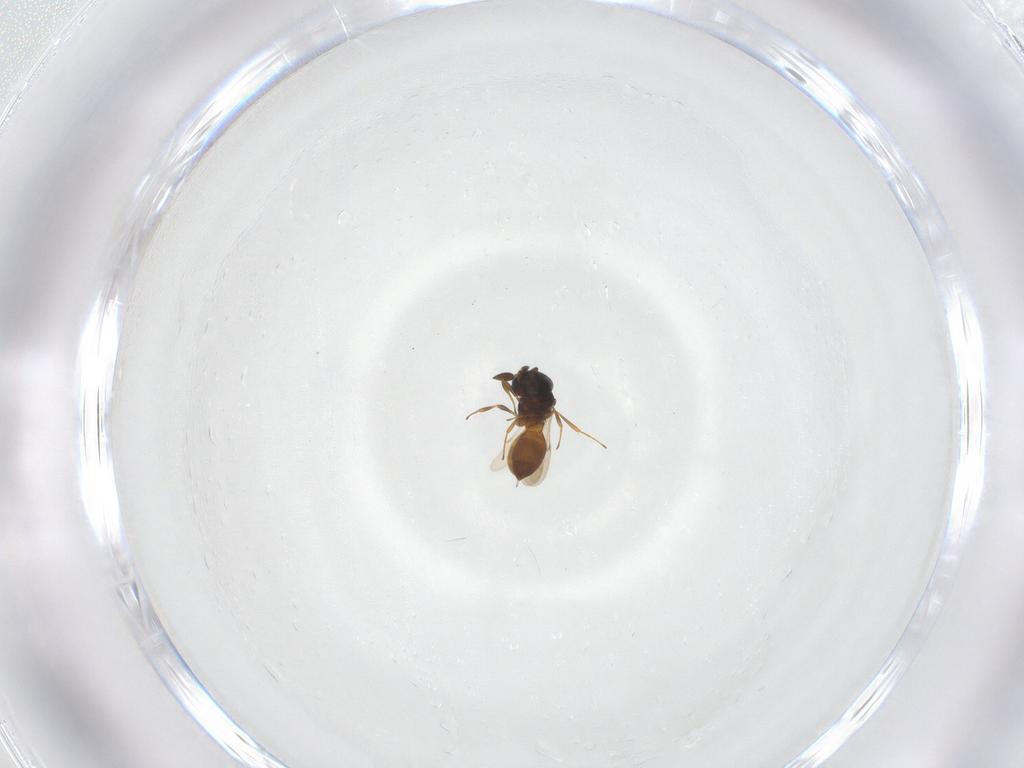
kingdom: Animalia
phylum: Arthropoda
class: Insecta
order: Hymenoptera
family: Scelionidae
